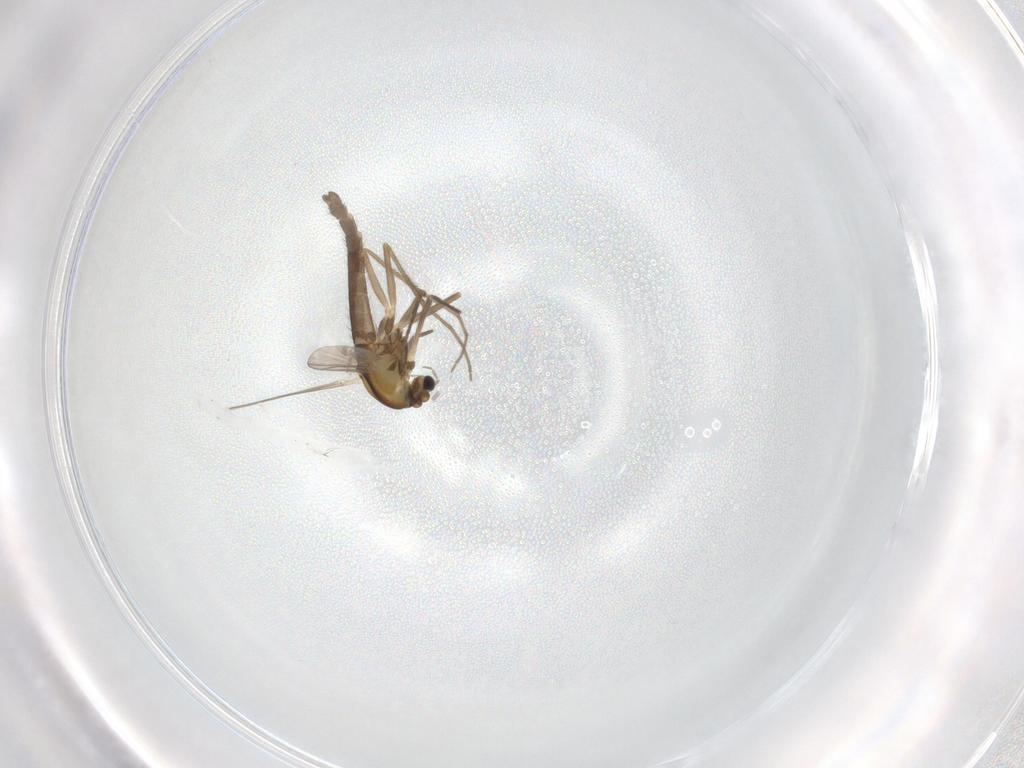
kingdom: Animalia
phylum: Arthropoda
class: Insecta
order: Diptera
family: Chironomidae
